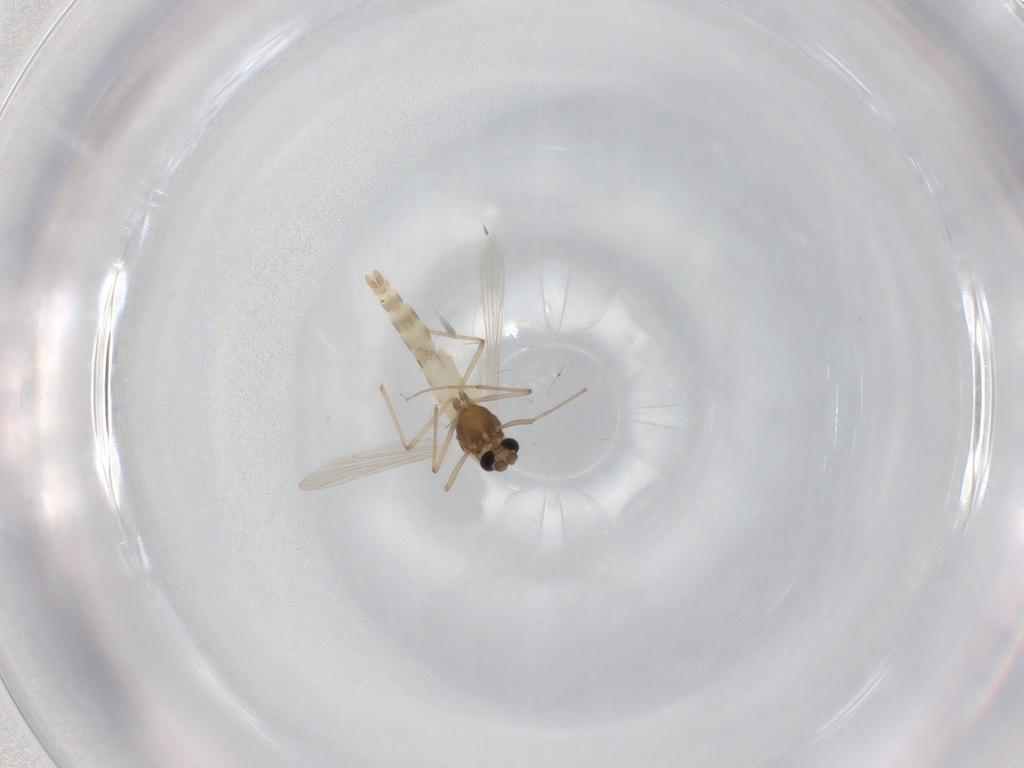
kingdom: Animalia
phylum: Arthropoda
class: Insecta
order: Diptera
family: Chironomidae
